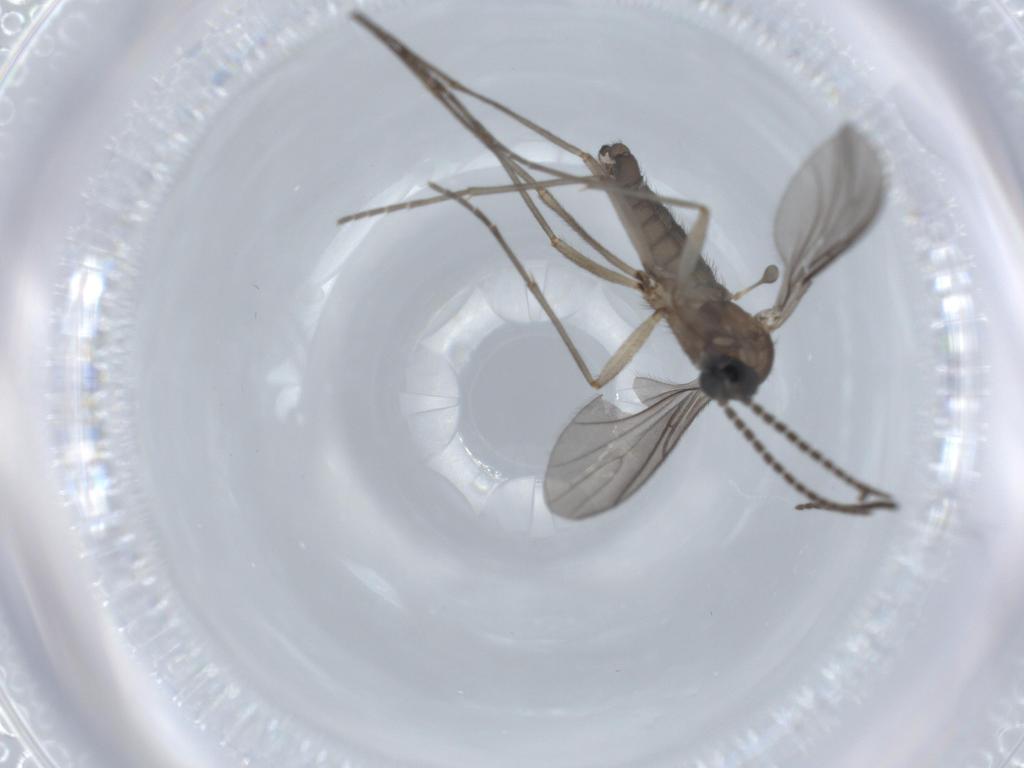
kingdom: Animalia
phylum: Arthropoda
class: Insecta
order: Diptera
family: Sciaridae
